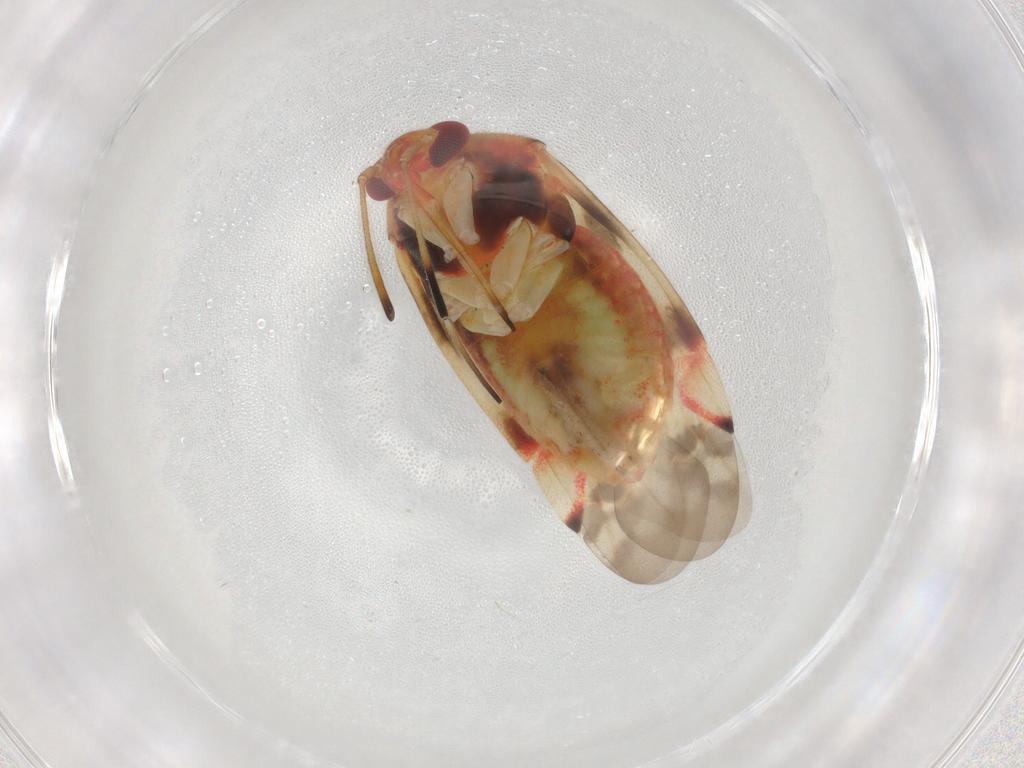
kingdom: Animalia
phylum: Arthropoda
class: Insecta
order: Hemiptera
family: Miridae
